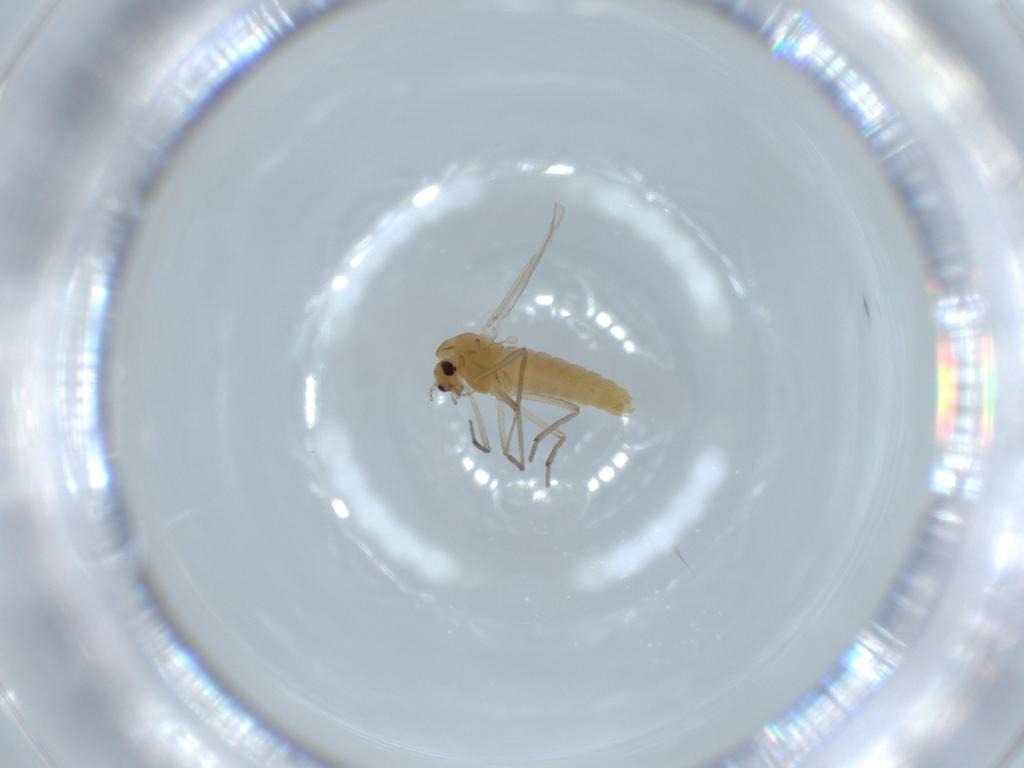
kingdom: Animalia
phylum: Arthropoda
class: Insecta
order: Diptera
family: Chironomidae
